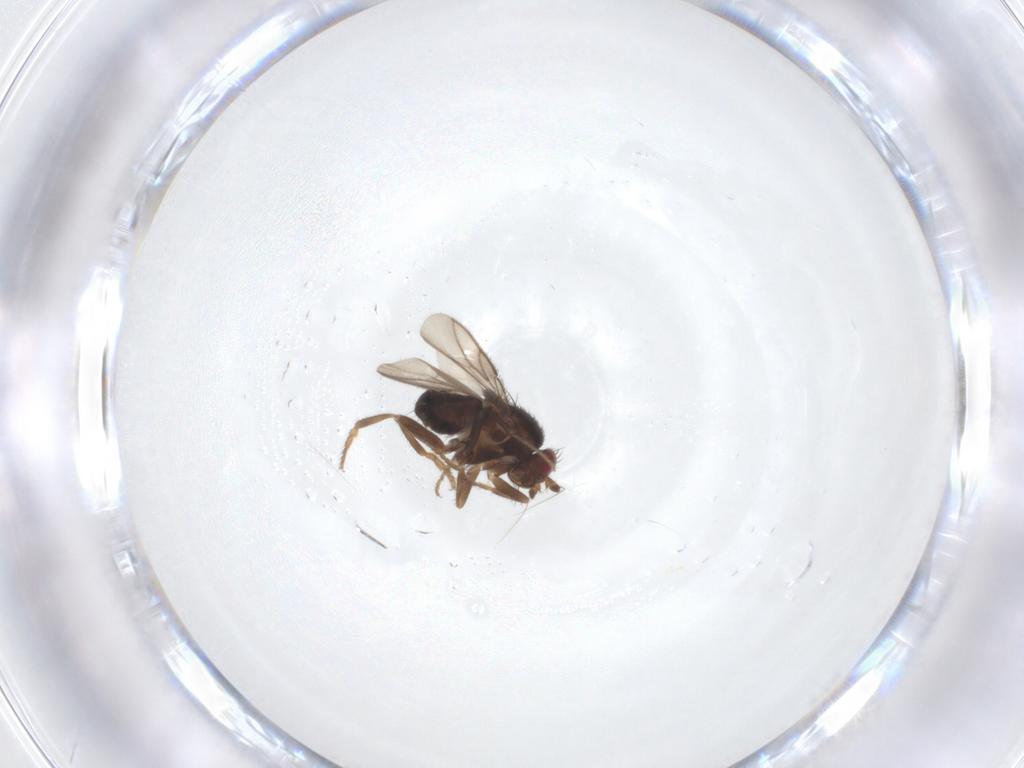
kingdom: Animalia
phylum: Arthropoda
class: Insecta
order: Diptera
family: Sphaeroceridae
